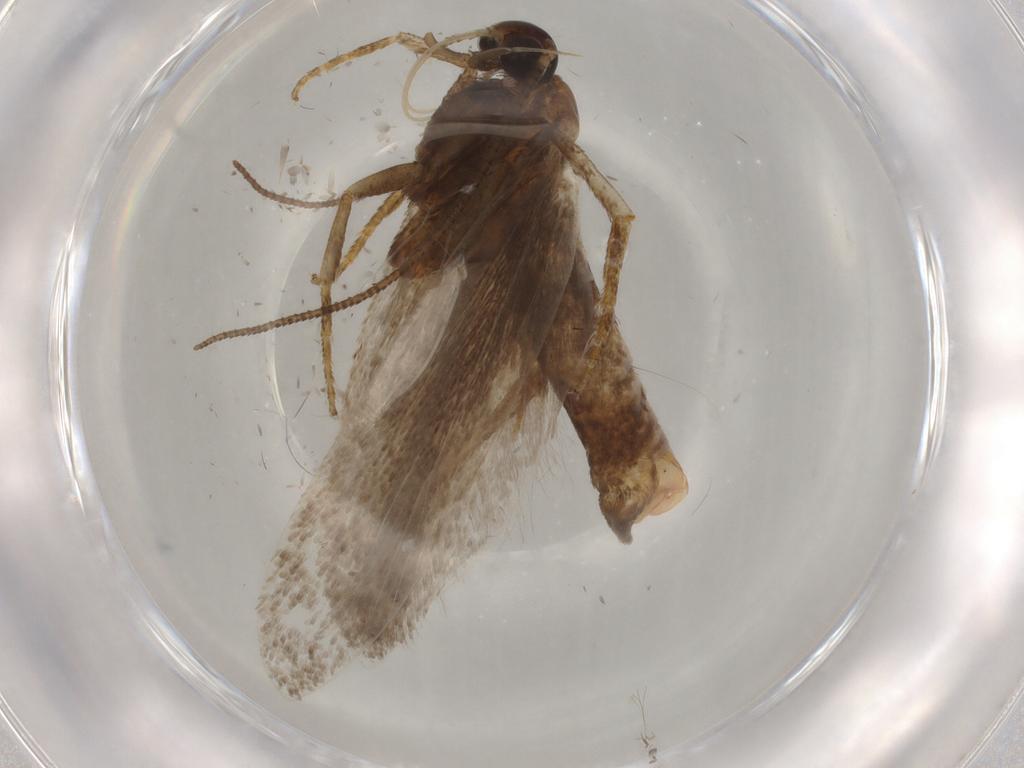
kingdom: Animalia
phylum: Arthropoda
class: Insecta
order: Lepidoptera
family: Gelechiidae
